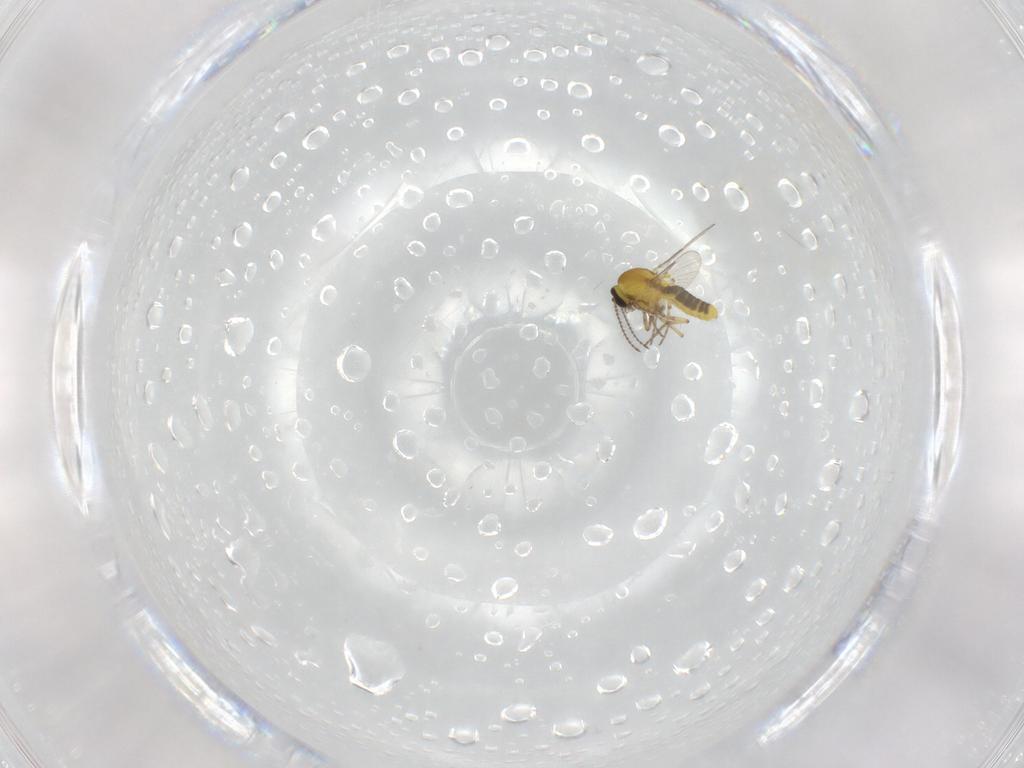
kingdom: Animalia
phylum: Arthropoda
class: Insecta
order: Diptera
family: Ceratopogonidae
